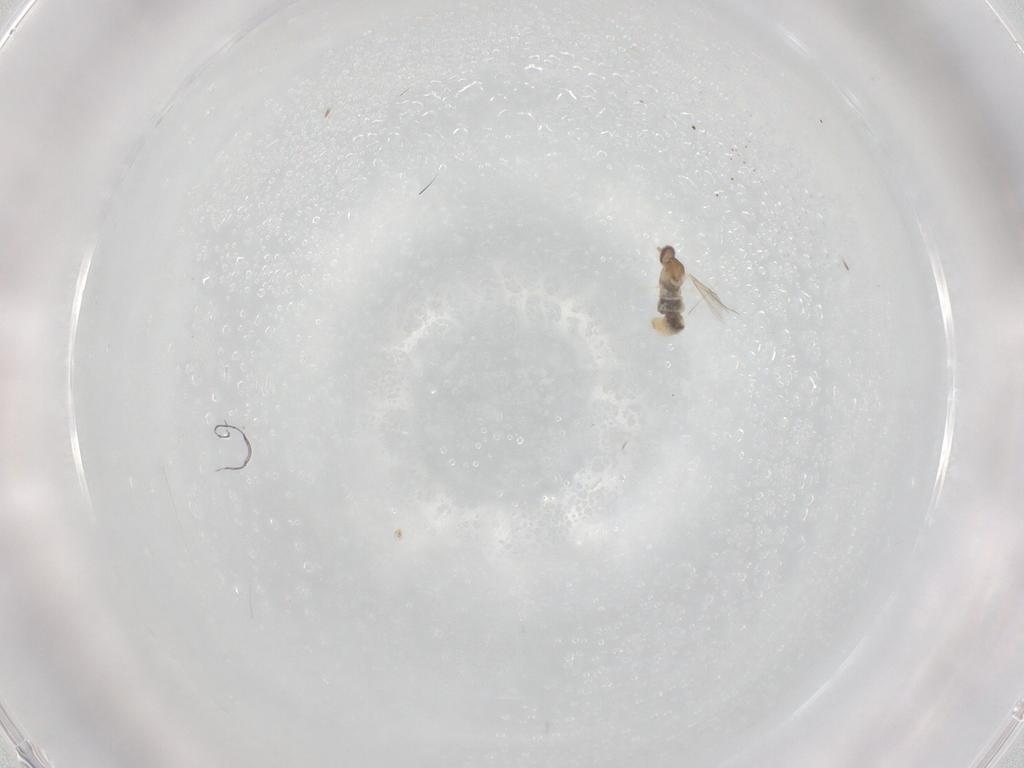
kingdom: Animalia
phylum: Arthropoda
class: Insecta
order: Diptera
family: Cecidomyiidae
